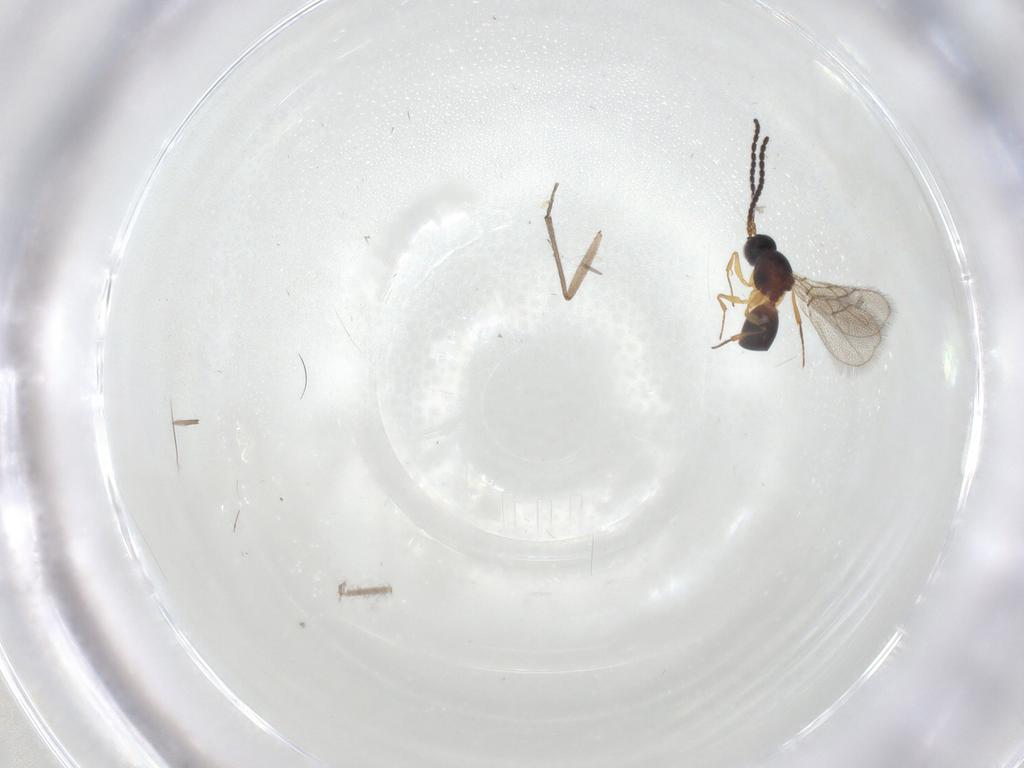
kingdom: Animalia
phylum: Arthropoda
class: Insecta
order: Hymenoptera
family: Figitidae
